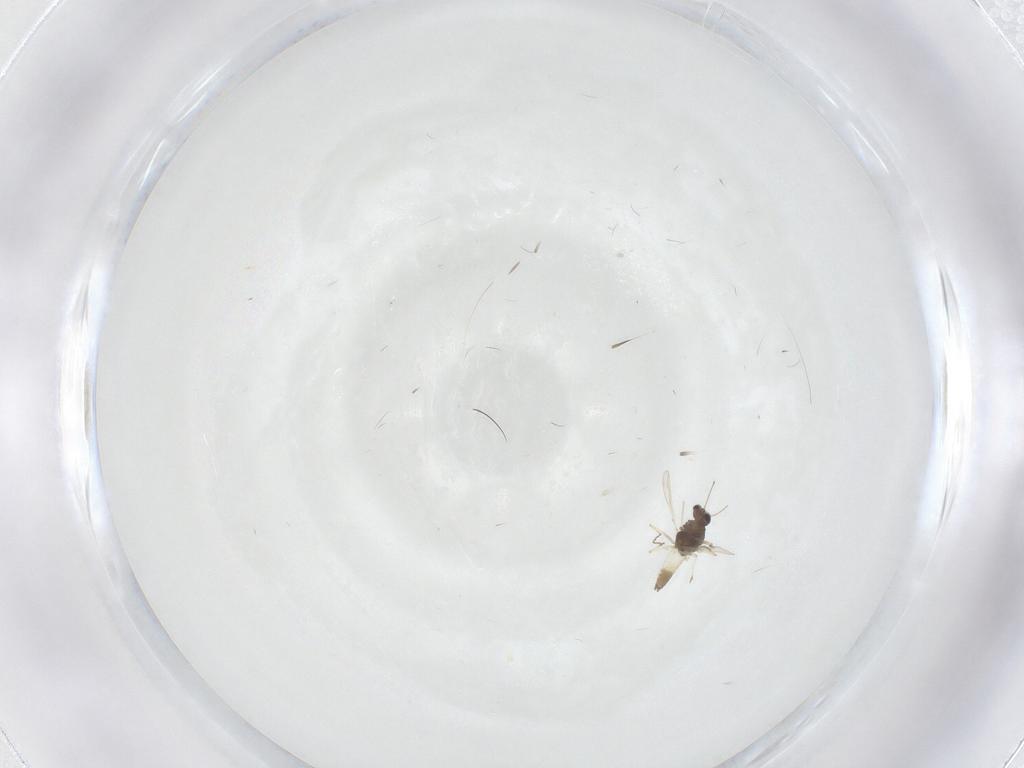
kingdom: Animalia
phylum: Arthropoda
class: Insecta
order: Diptera
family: Chironomidae
